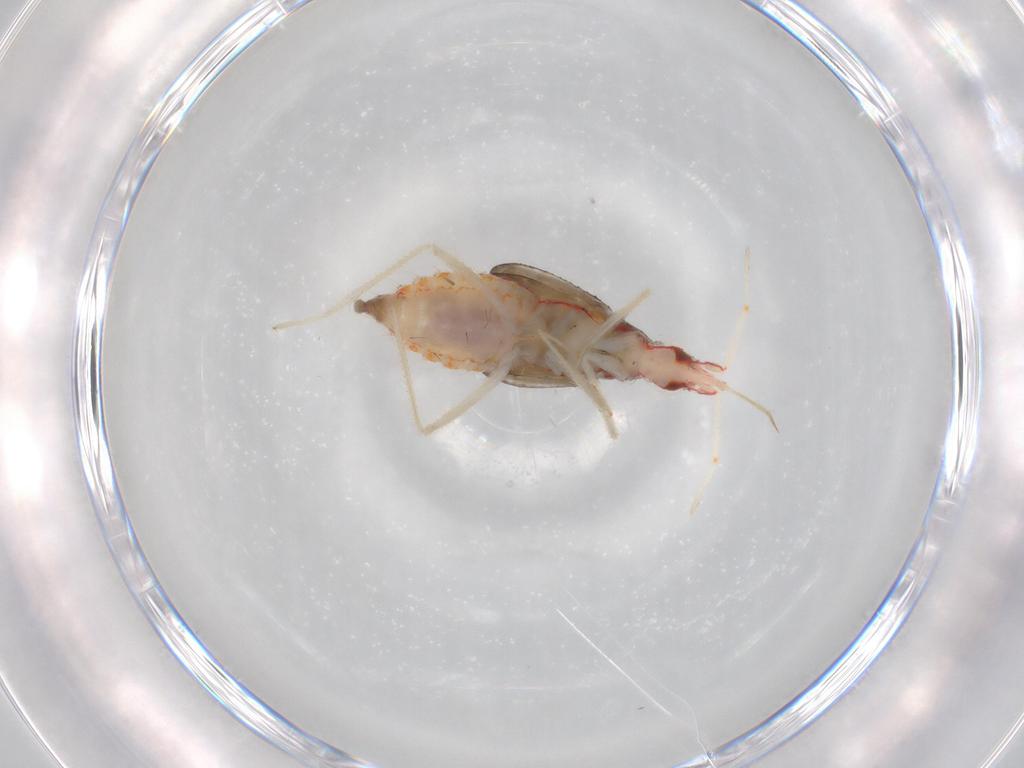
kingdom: Animalia
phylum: Arthropoda
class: Insecta
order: Hemiptera
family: Miridae
